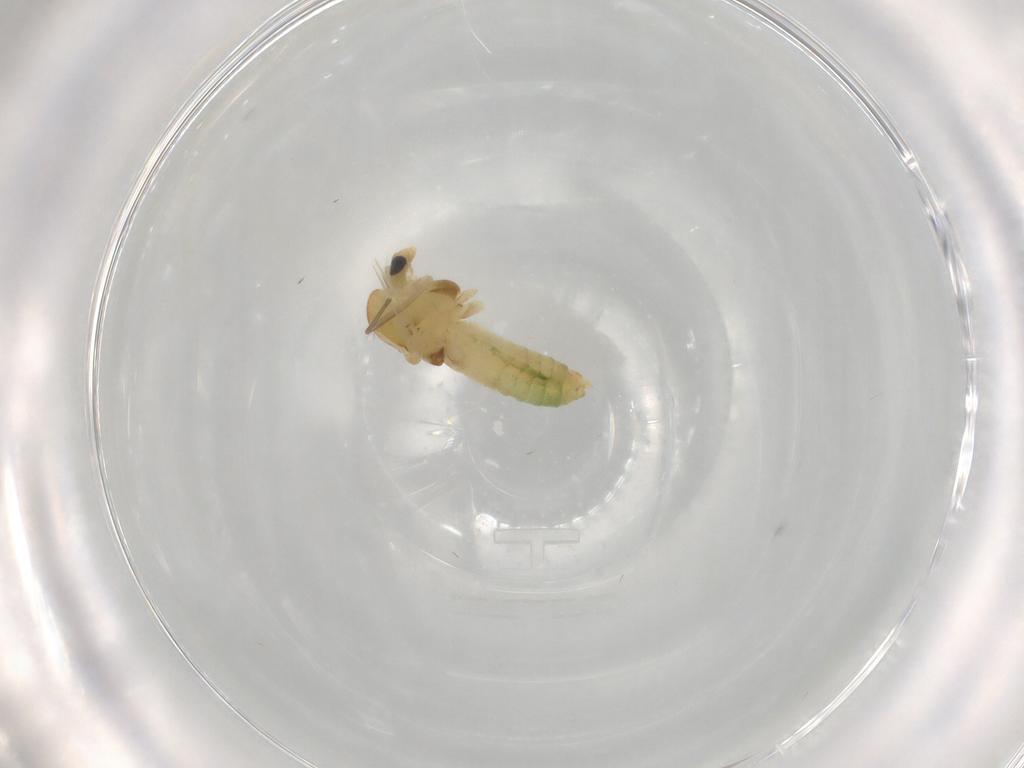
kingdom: Animalia
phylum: Arthropoda
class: Insecta
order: Diptera
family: Chironomidae
